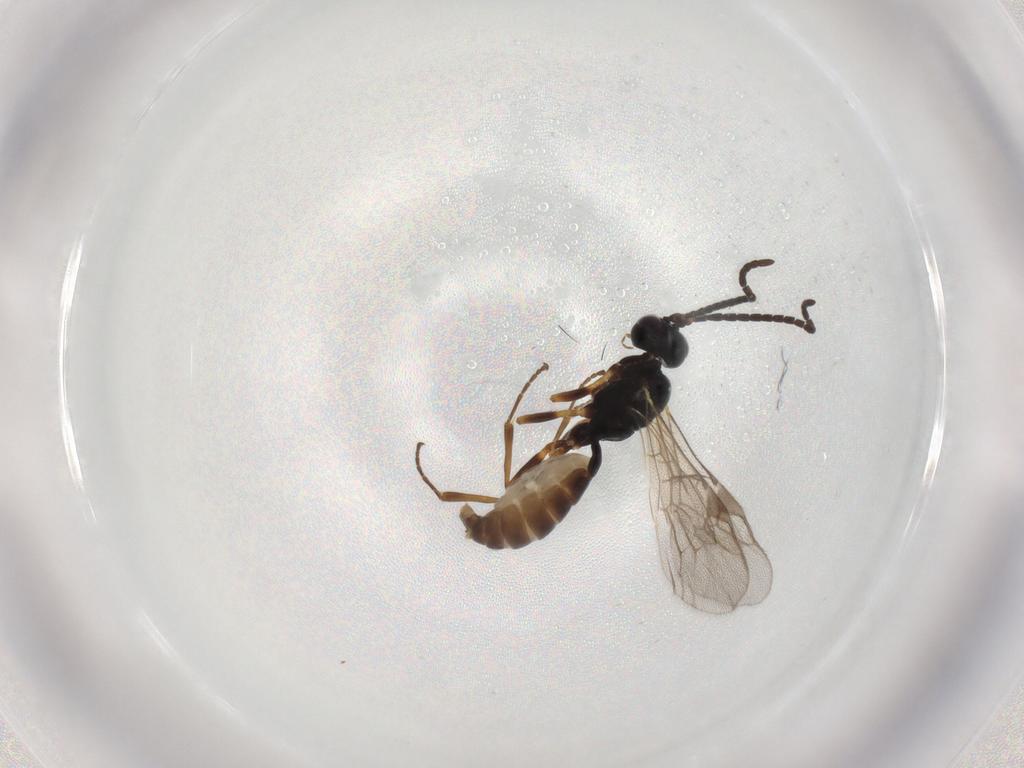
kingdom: Animalia
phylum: Arthropoda
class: Insecta
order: Hymenoptera
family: Ichneumonidae
